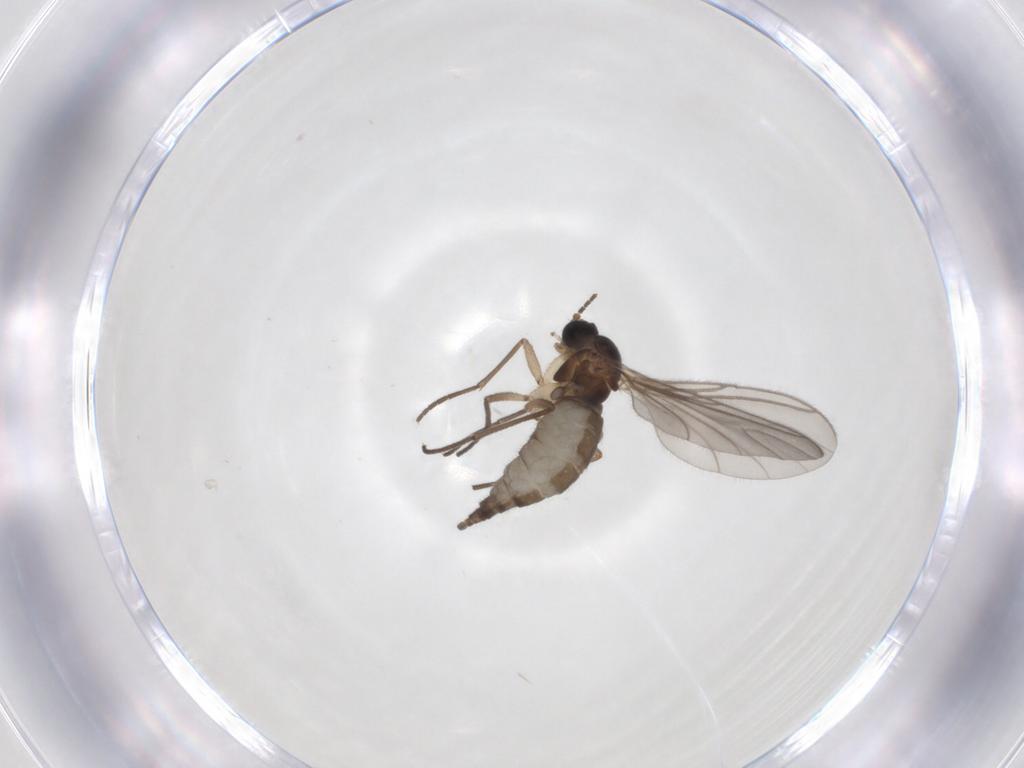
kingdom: Animalia
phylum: Arthropoda
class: Insecta
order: Diptera
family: Sciaridae
